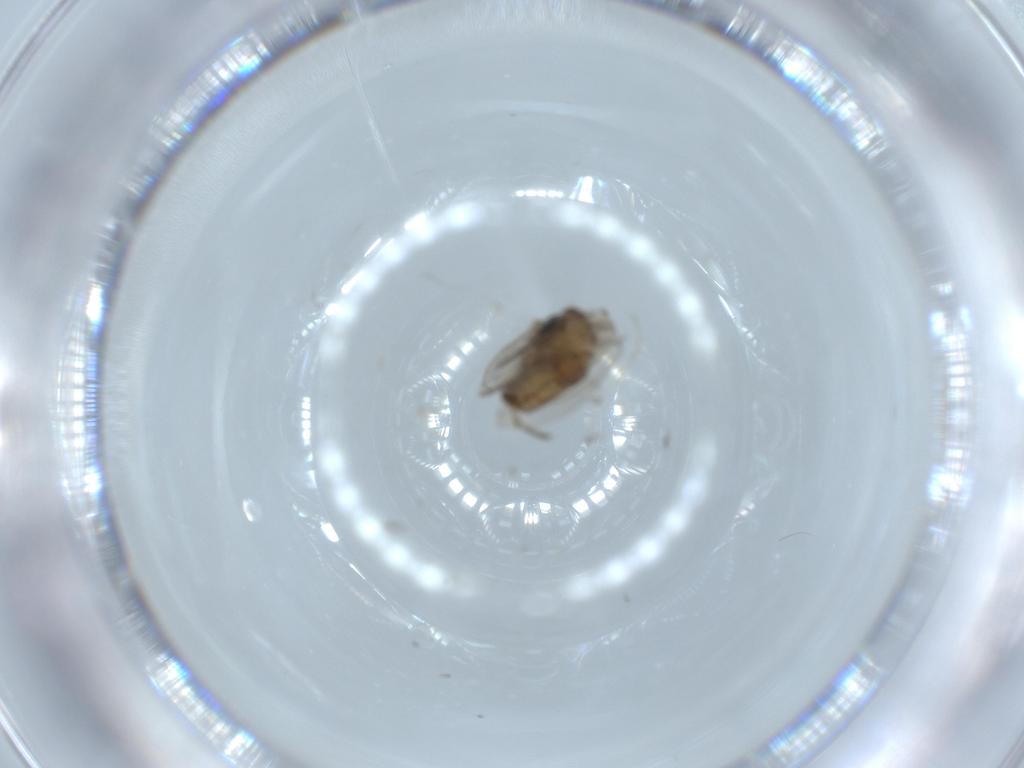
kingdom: Animalia
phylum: Arthropoda
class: Insecta
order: Diptera
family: Psychodidae
